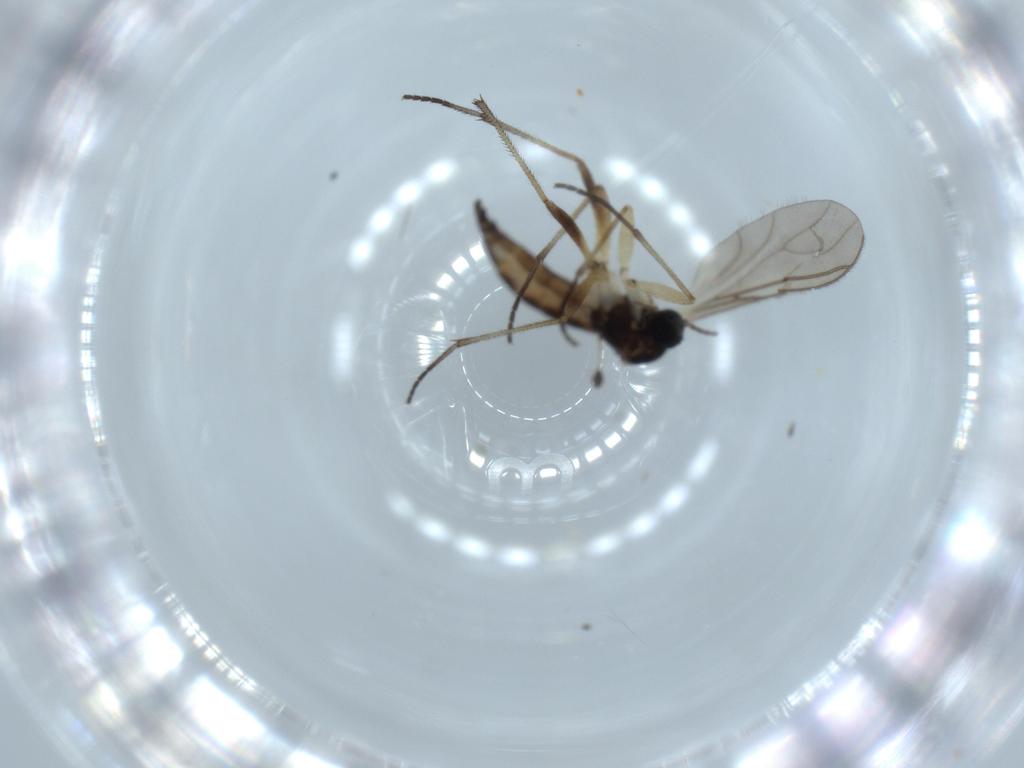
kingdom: Animalia
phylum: Arthropoda
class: Insecta
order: Diptera
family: Sciaridae
